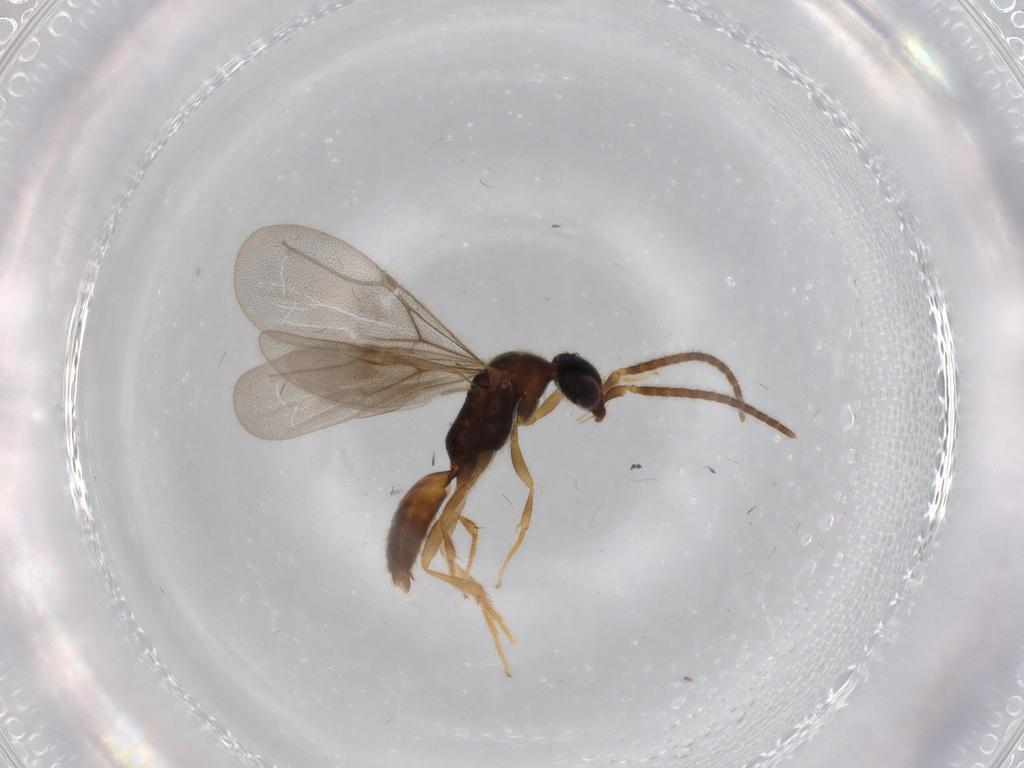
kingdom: Animalia
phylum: Arthropoda
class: Insecta
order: Hymenoptera
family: Bethylidae
